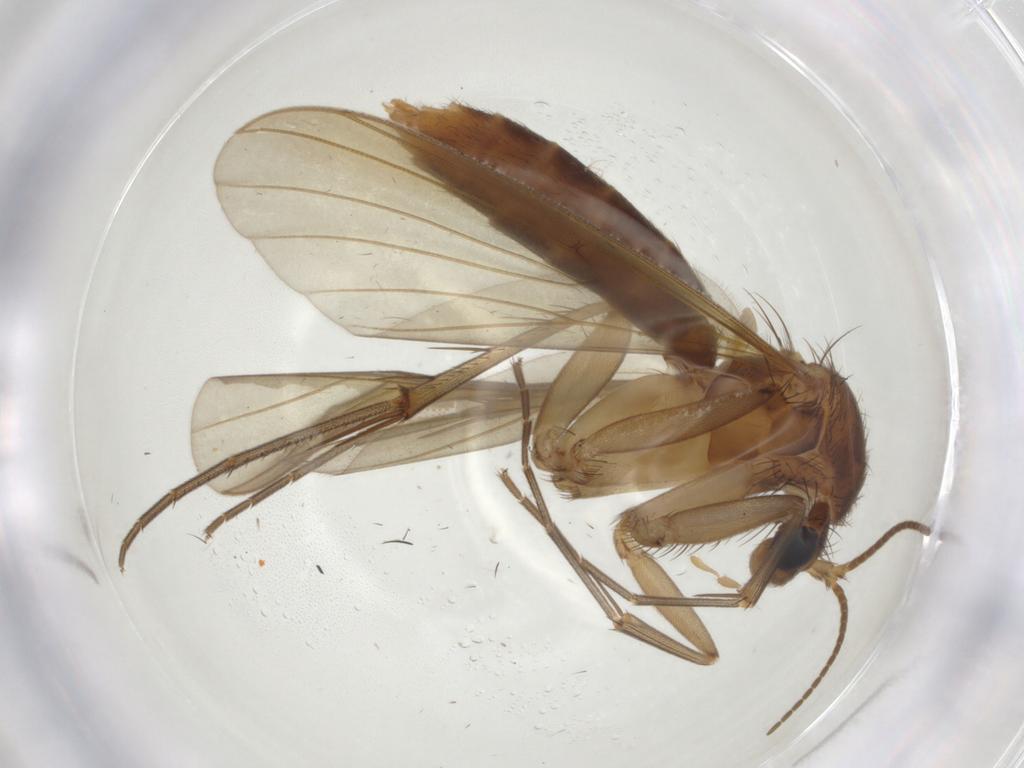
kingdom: Animalia
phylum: Arthropoda
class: Insecta
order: Diptera
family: Mycetophilidae
